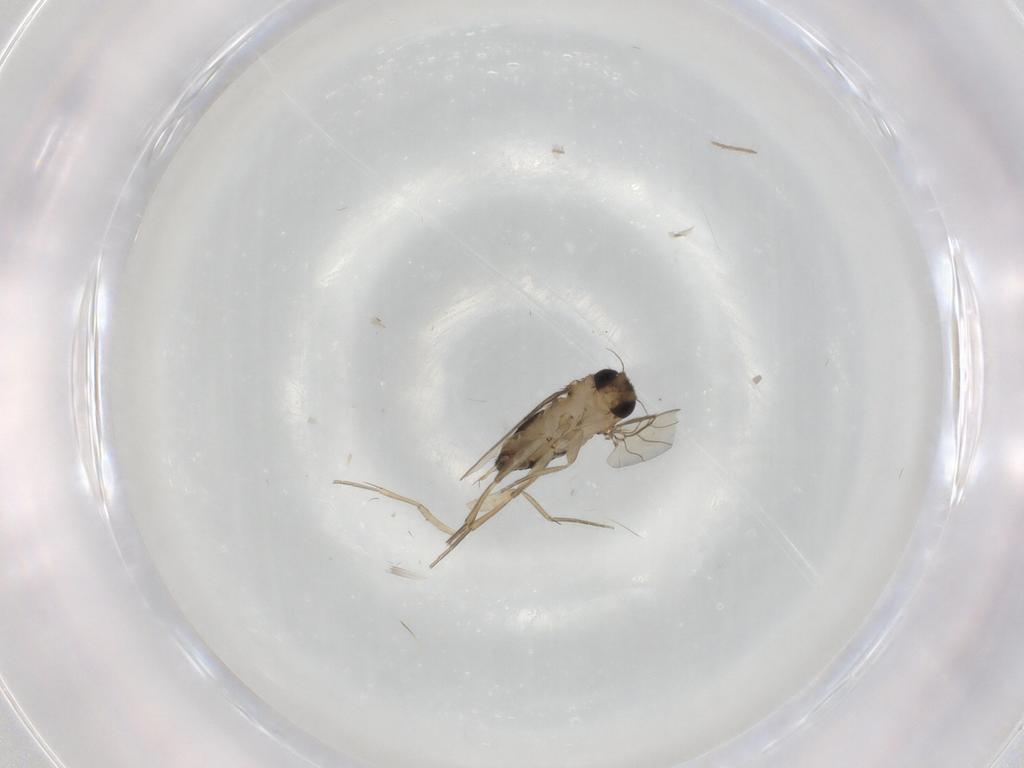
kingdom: Animalia
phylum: Arthropoda
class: Insecta
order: Diptera
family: Phoridae
